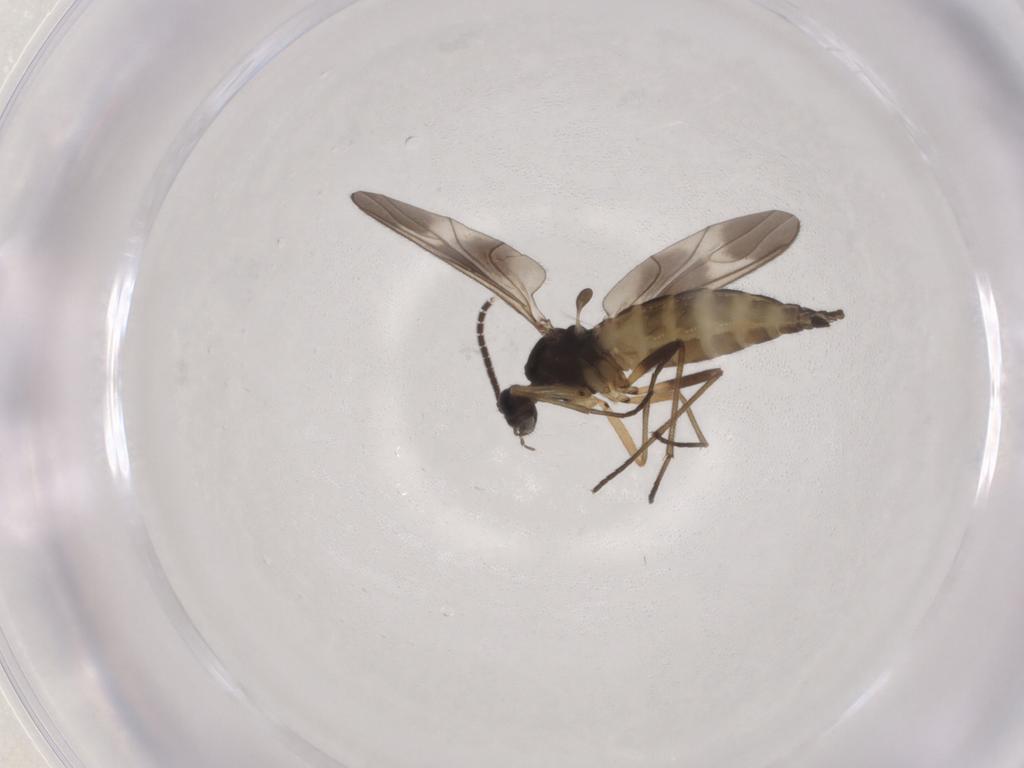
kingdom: Animalia
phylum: Arthropoda
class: Insecta
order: Diptera
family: Sciaridae
